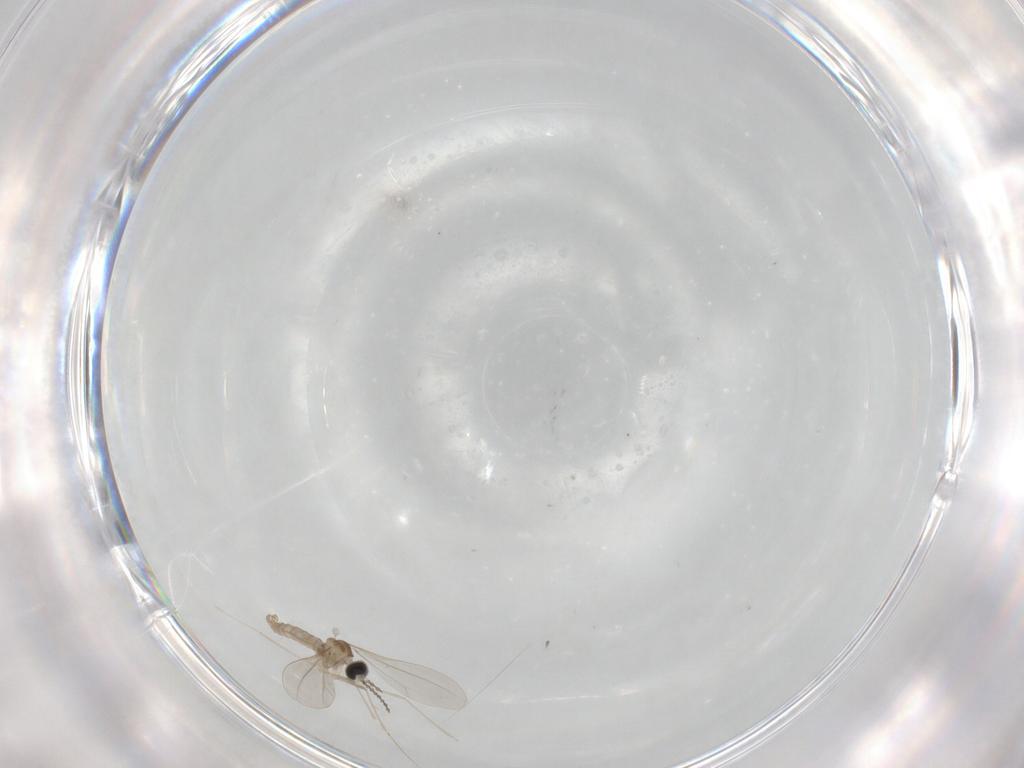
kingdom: Animalia
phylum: Arthropoda
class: Insecta
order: Diptera
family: Cecidomyiidae
